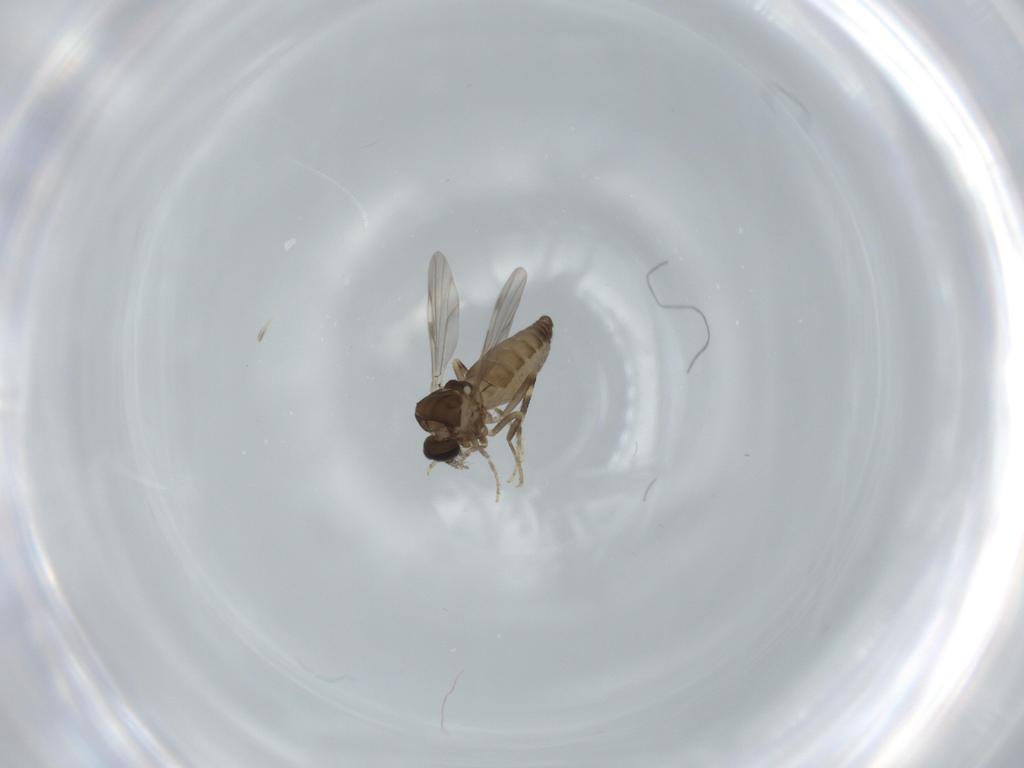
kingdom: Animalia
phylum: Arthropoda
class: Insecta
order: Diptera
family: Ceratopogonidae
